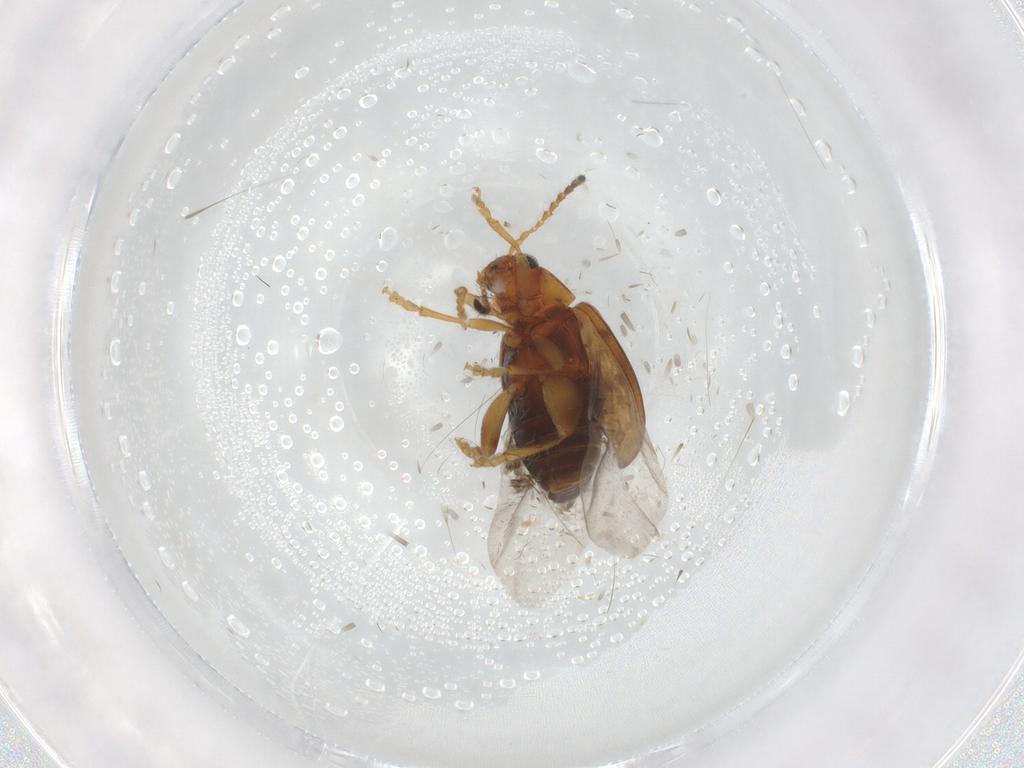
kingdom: Animalia
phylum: Arthropoda
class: Insecta
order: Coleoptera
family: Chrysomelidae
